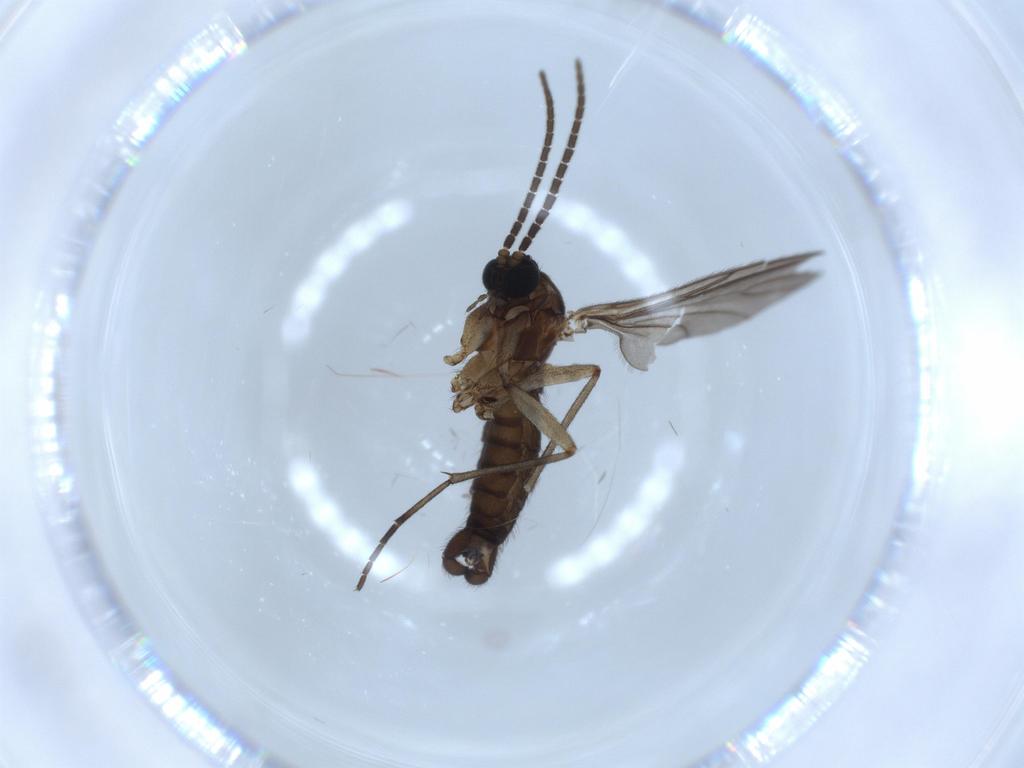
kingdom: Animalia
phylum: Arthropoda
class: Insecta
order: Diptera
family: Sciaridae
